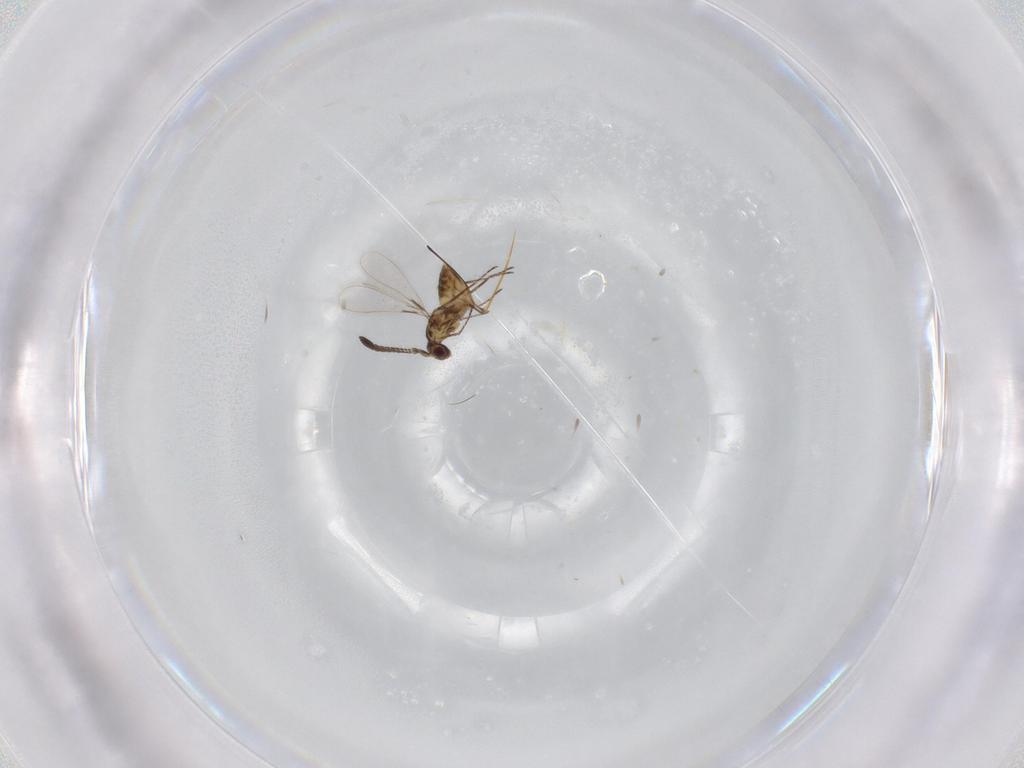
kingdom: Animalia
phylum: Arthropoda
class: Insecta
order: Hymenoptera
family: Mymaridae
